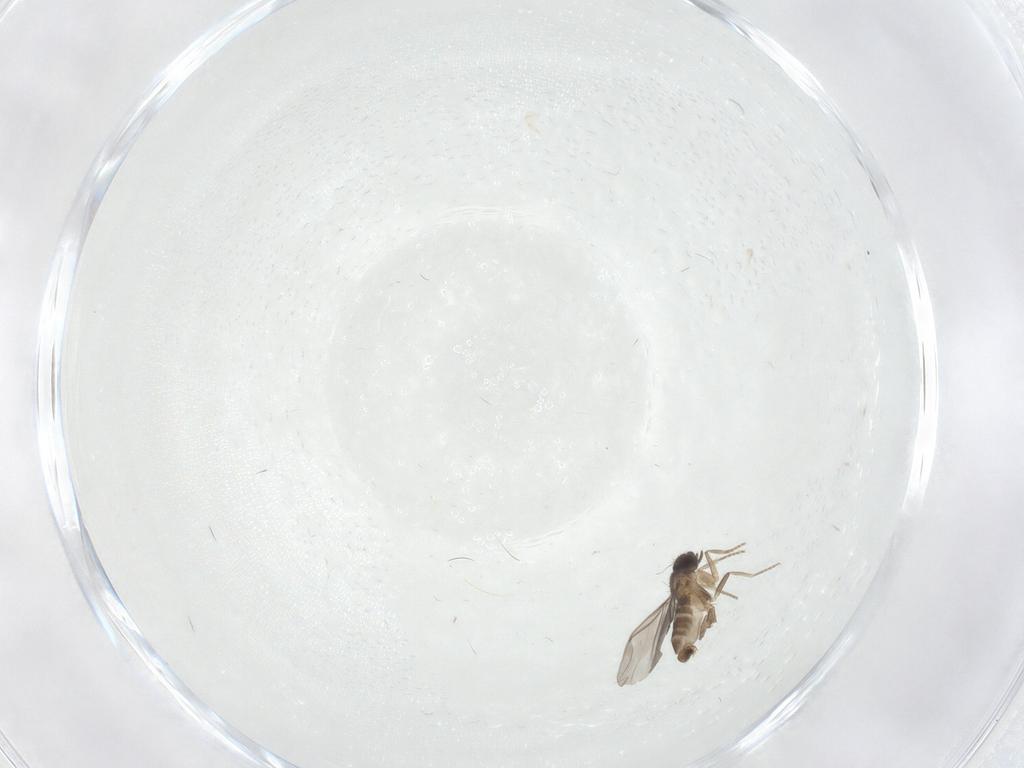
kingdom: Animalia
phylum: Arthropoda
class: Insecta
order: Diptera
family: Cecidomyiidae
